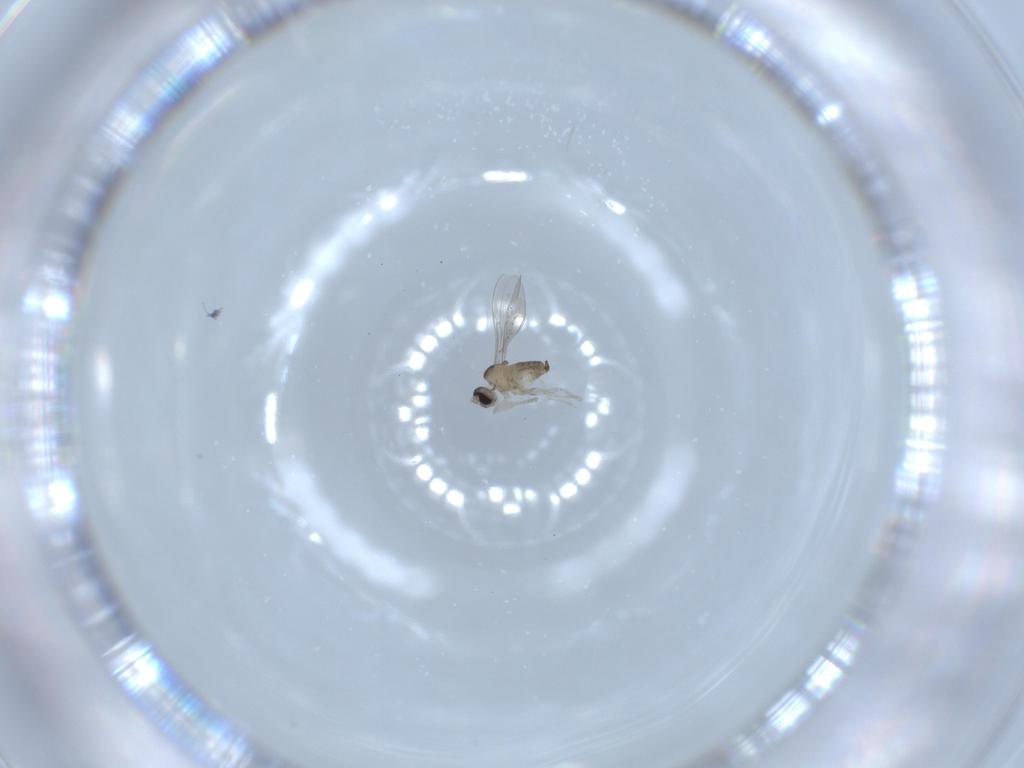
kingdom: Animalia
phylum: Arthropoda
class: Insecta
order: Diptera
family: Cecidomyiidae
